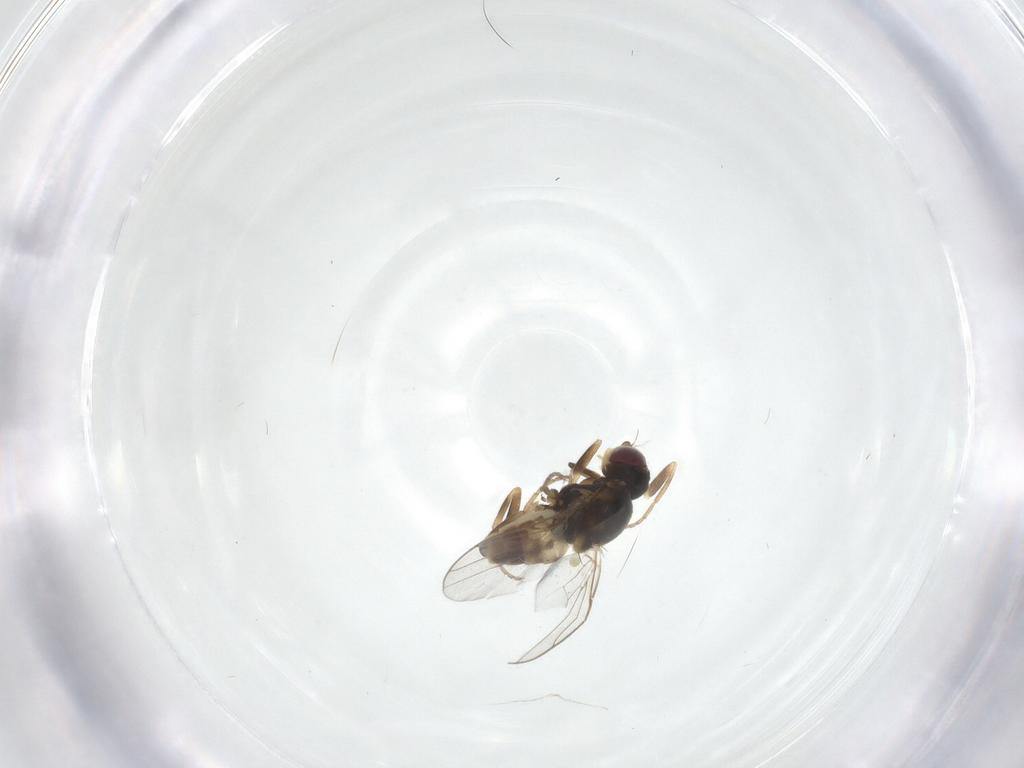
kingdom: Animalia
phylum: Arthropoda
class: Insecta
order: Diptera
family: Chloropidae
